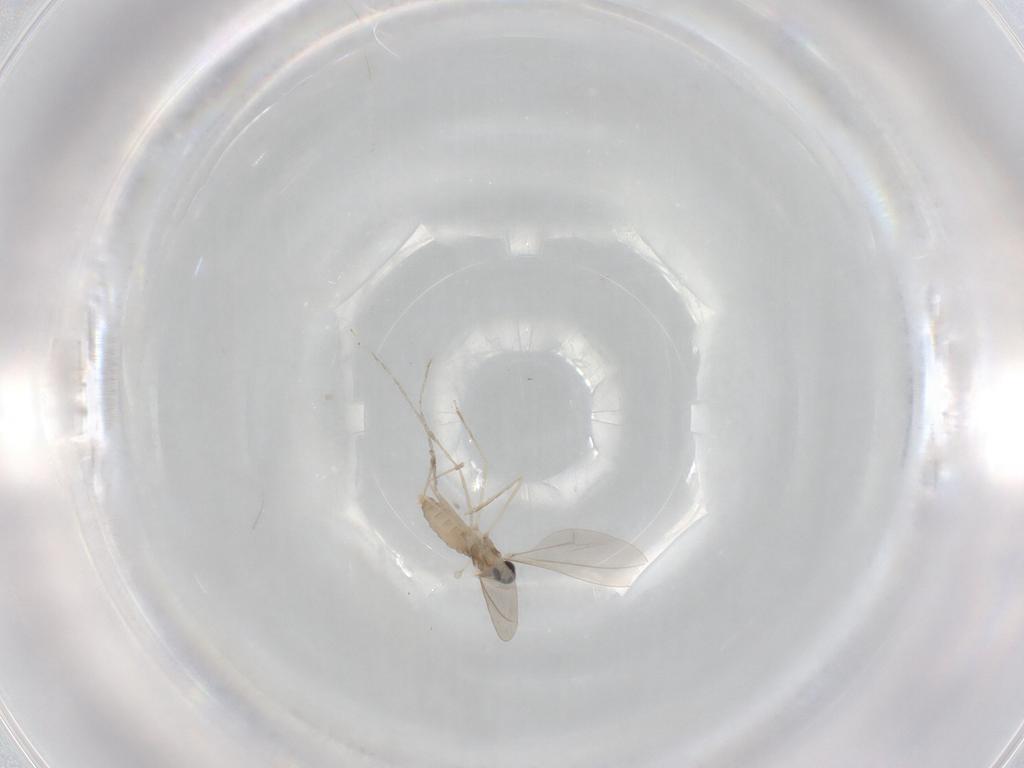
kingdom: Animalia
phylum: Arthropoda
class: Insecta
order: Diptera
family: Cecidomyiidae
